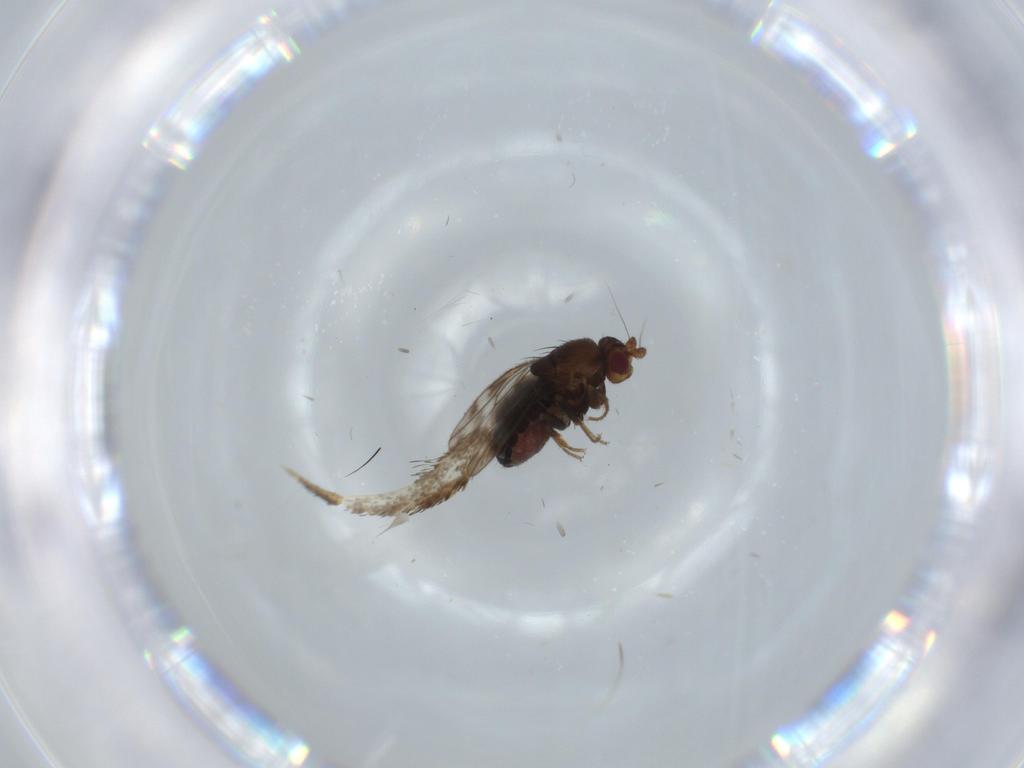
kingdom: Animalia
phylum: Arthropoda
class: Insecta
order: Diptera
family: Sphaeroceridae
